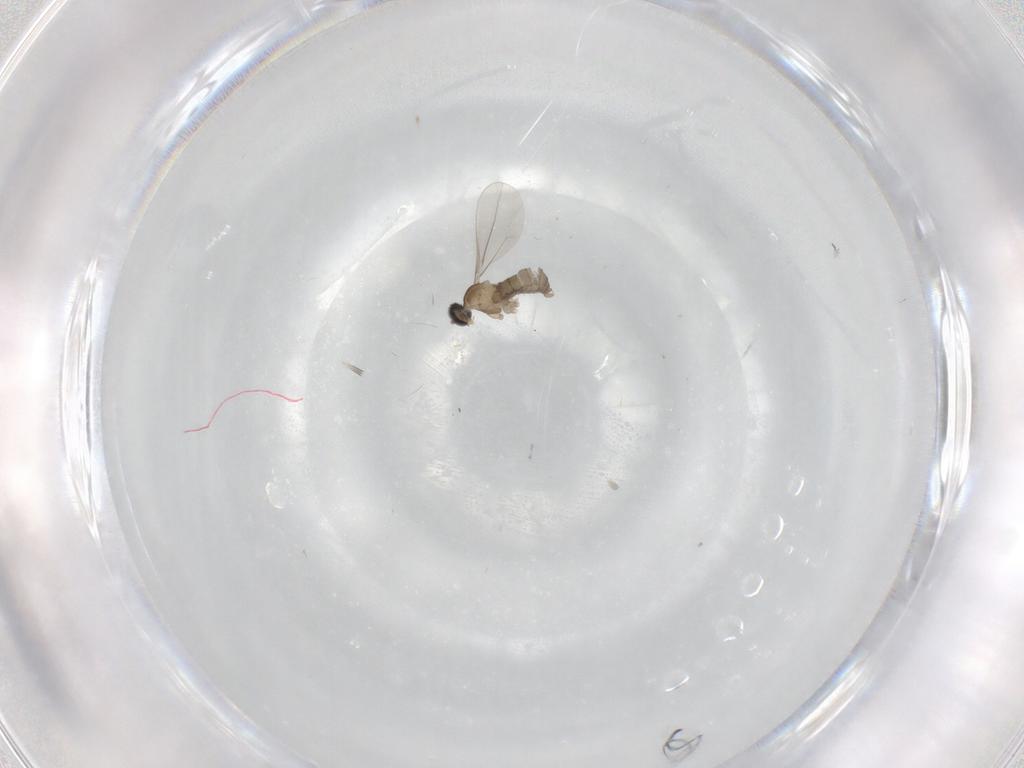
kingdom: Animalia
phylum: Arthropoda
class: Insecta
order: Diptera
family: Cecidomyiidae
